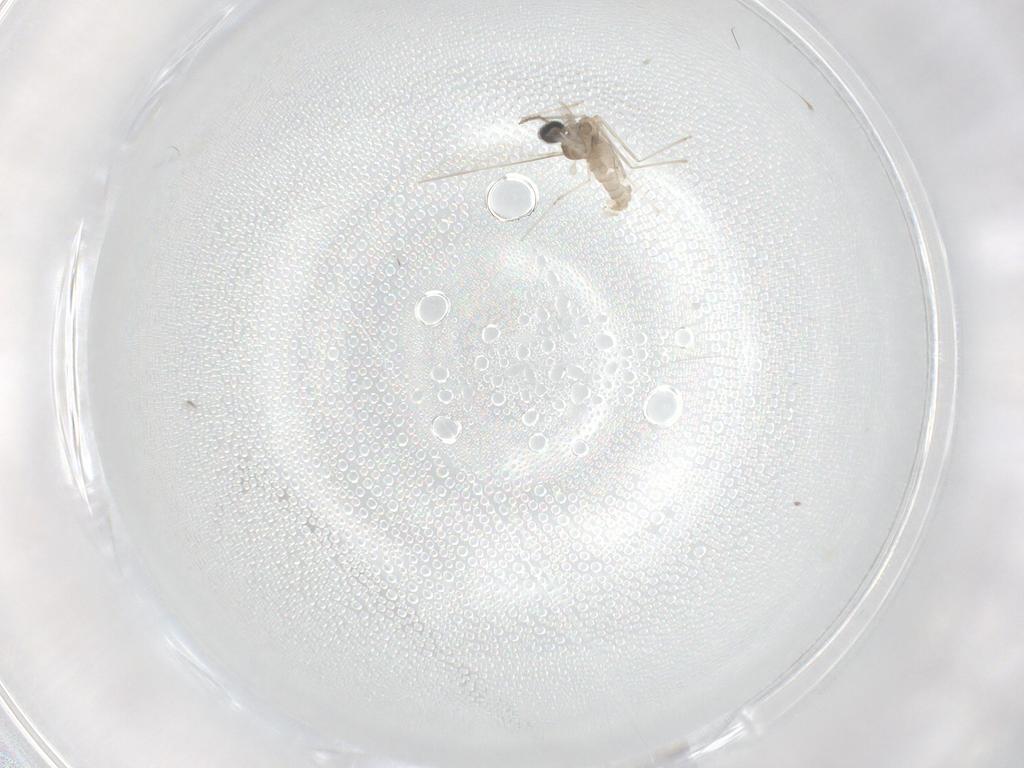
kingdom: Animalia
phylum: Arthropoda
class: Insecta
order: Diptera
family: Cecidomyiidae
